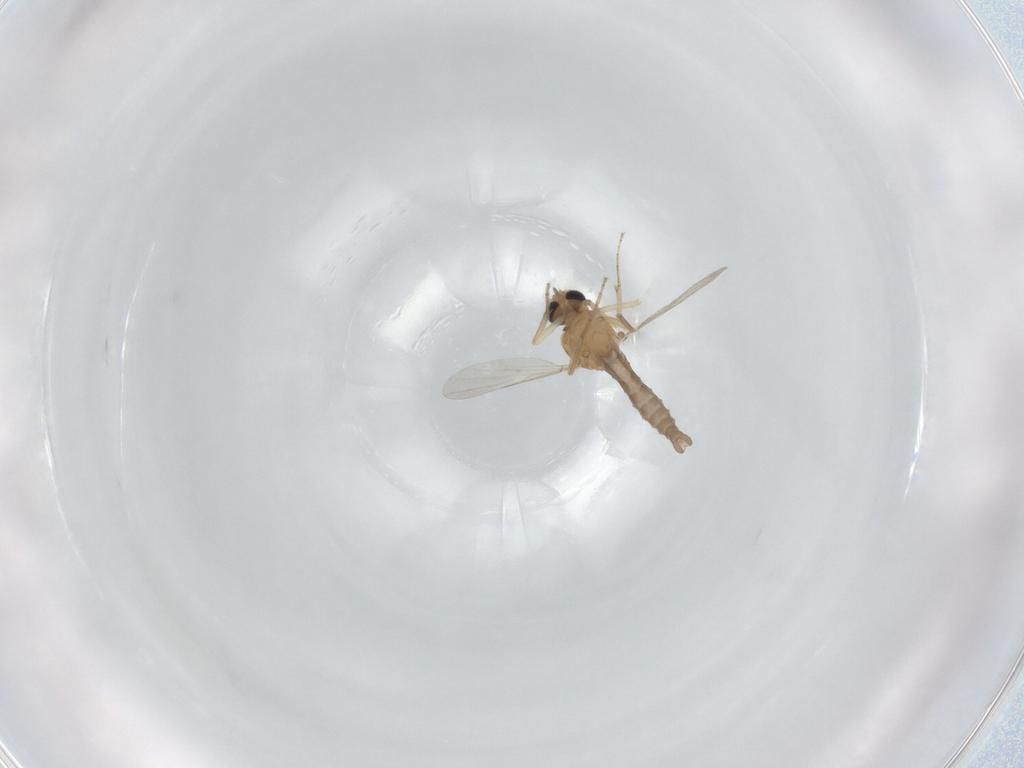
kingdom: Animalia
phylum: Arthropoda
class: Insecta
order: Diptera
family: Ceratopogonidae
